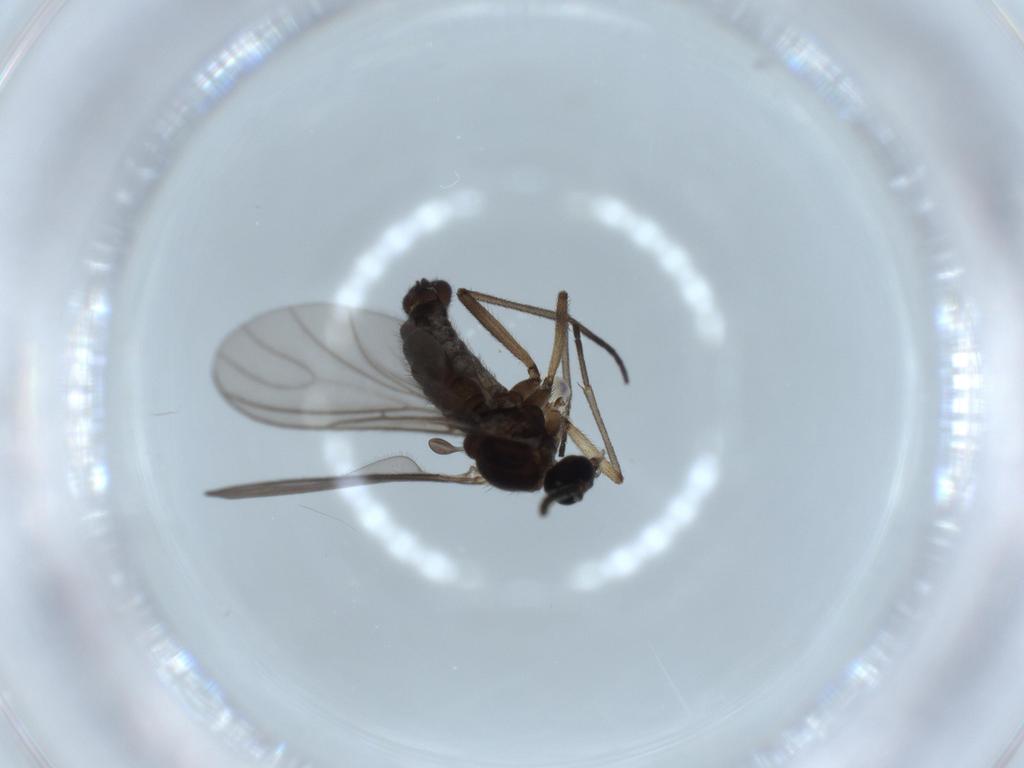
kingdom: Animalia
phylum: Arthropoda
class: Insecta
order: Diptera
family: Sciaridae
